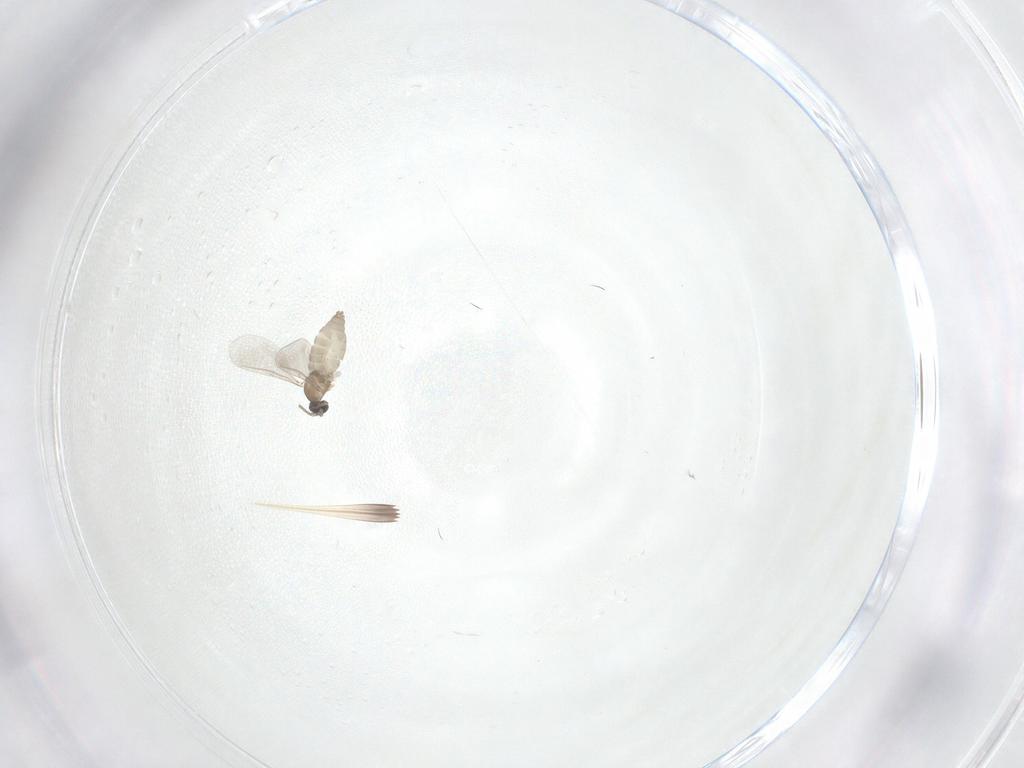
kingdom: Animalia
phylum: Arthropoda
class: Insecta
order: Diptera
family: Cecidomyiidae
